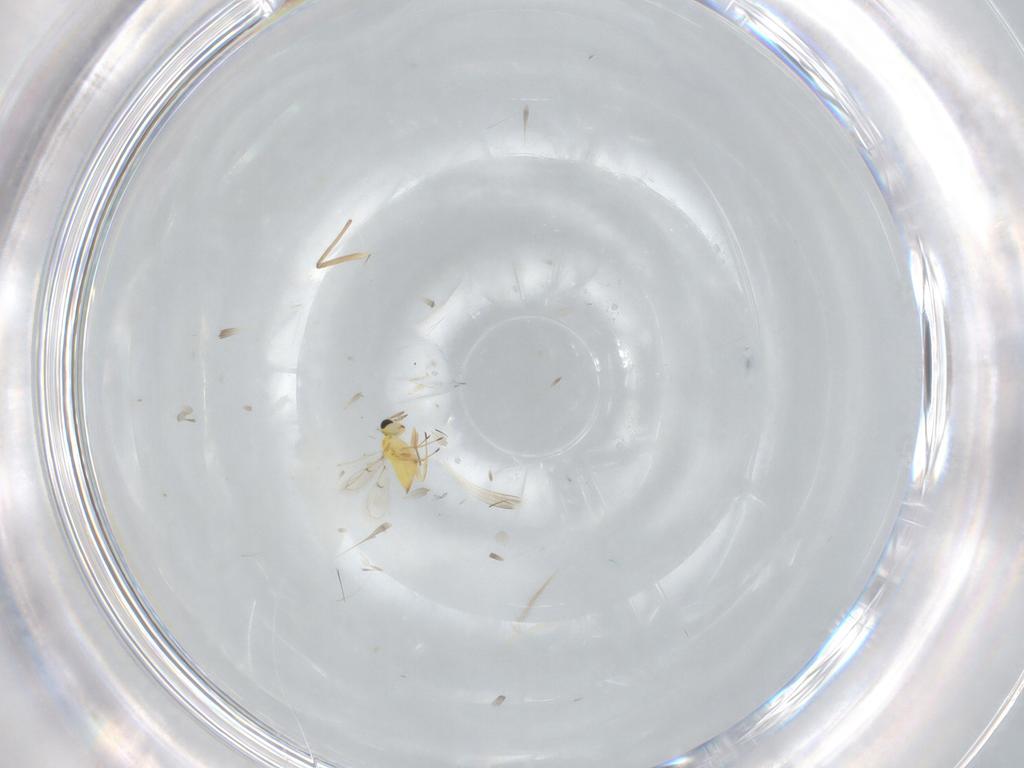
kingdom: Animalia
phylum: Arthropoda
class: Insecta
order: Hymenoptera
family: Trichogrammatidae
